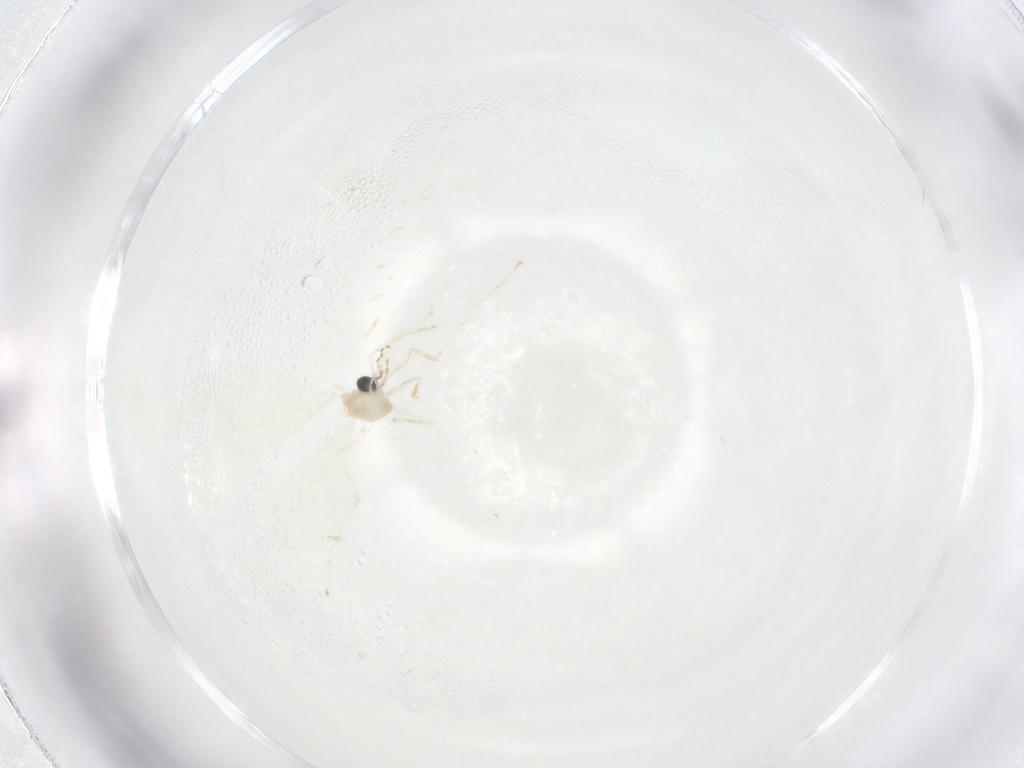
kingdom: Animalia
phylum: Arthropoda
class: Insecta
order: Diptera
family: Cecidomyiidae
